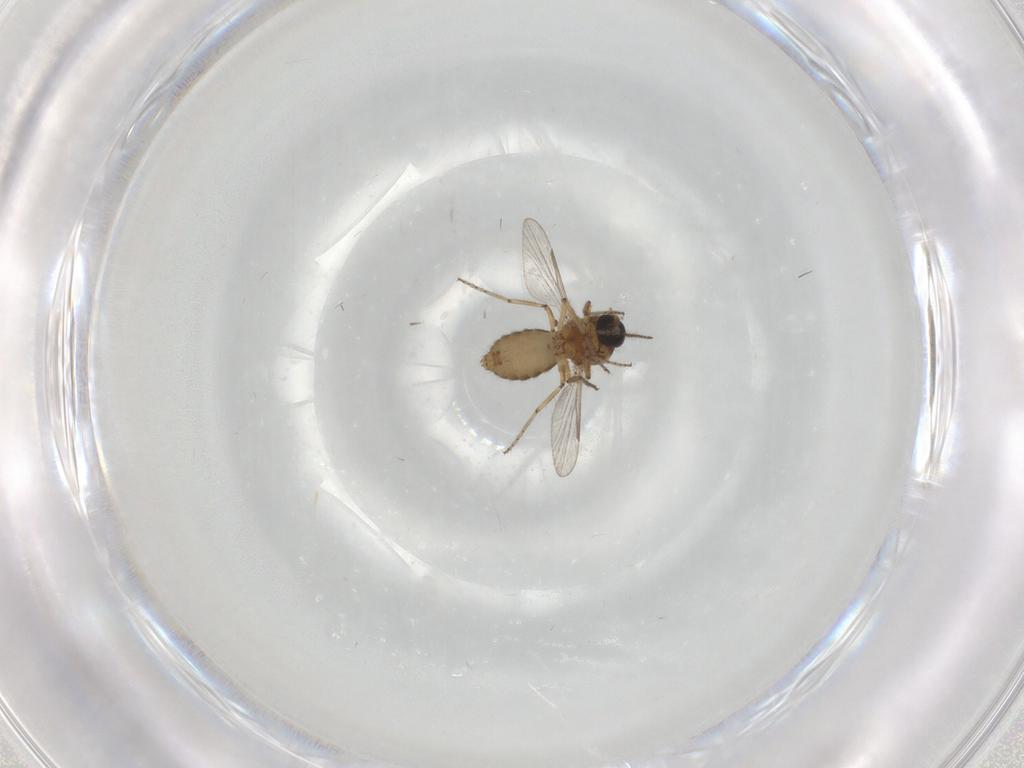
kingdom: Animalia
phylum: Arthropoda
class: Insecta
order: Diptera
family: Ceratopogonidae
